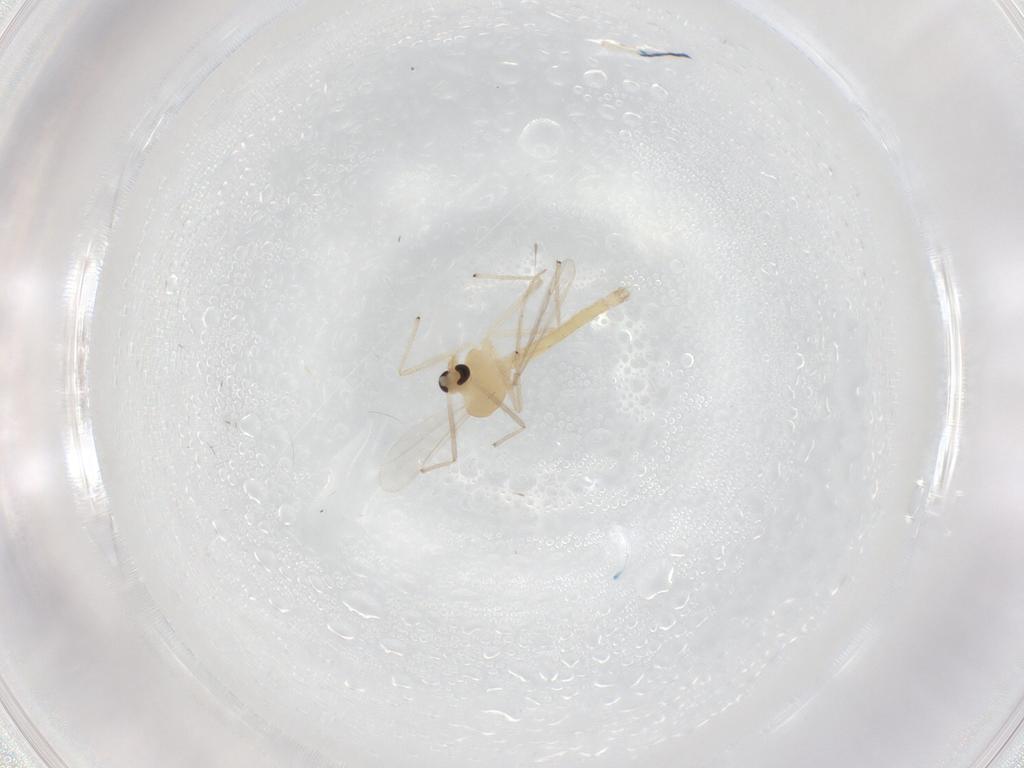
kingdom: Animalia
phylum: Arthropoda
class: Insecta
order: Diptera
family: Chironomidae
